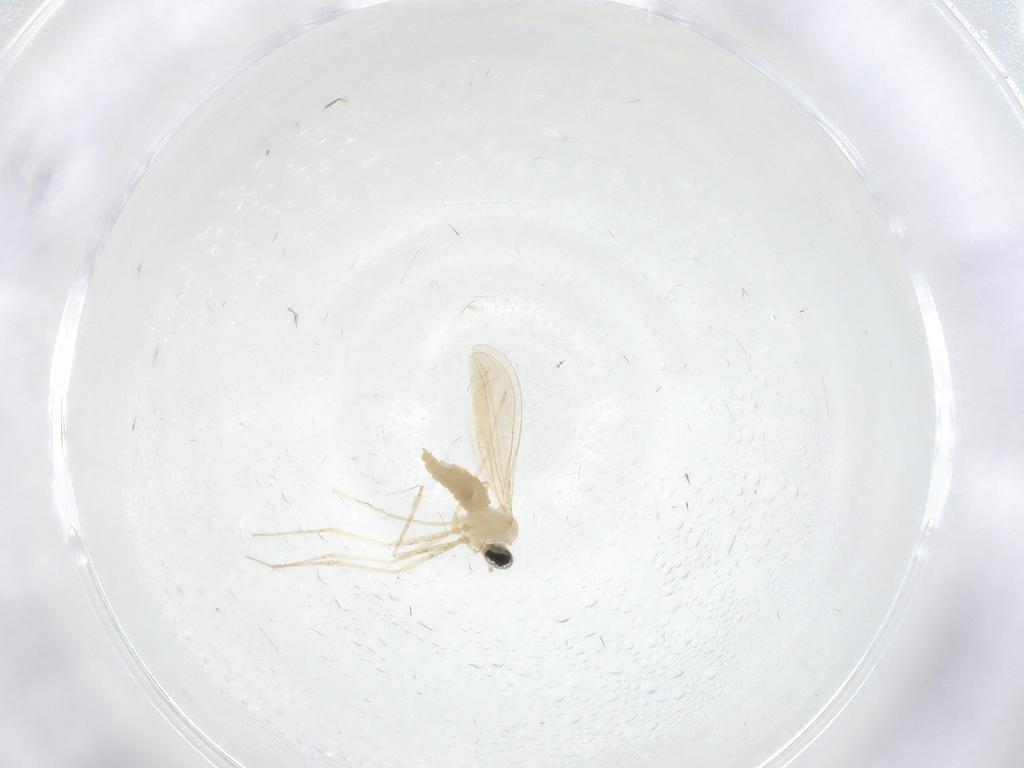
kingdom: Animalia
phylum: Arthropoda
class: Insecta
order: Diptera
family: Cecidomyiidae
